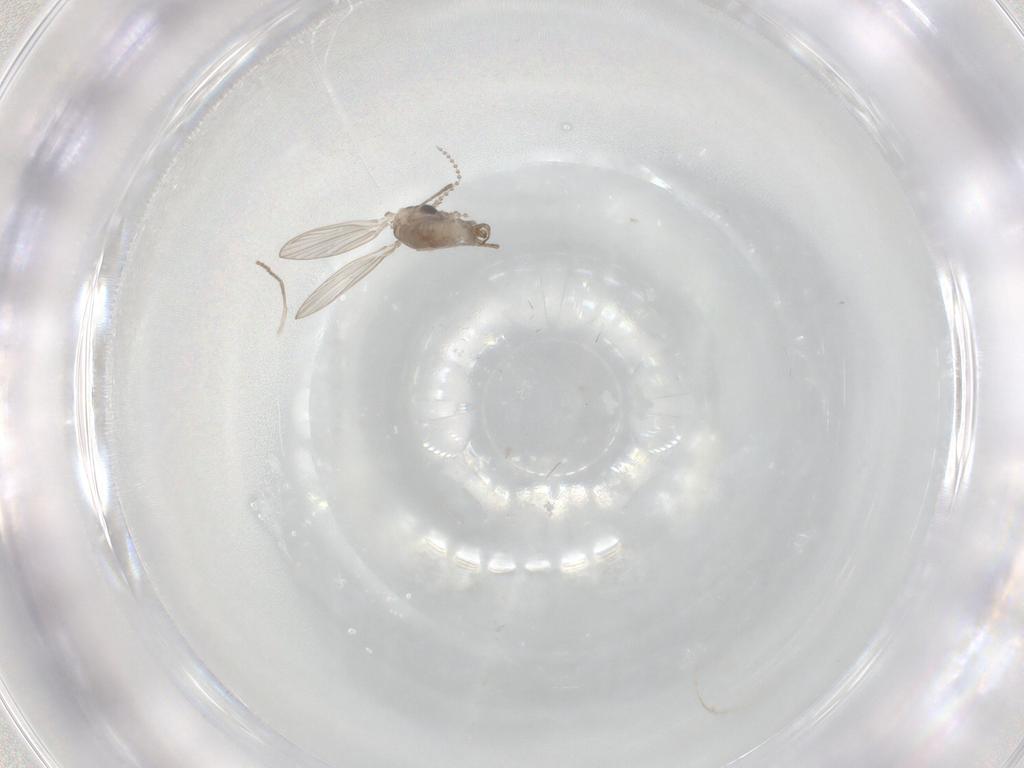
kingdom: Animalia
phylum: Arthropoda
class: Insecta
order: Diptera
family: Psychodidae
